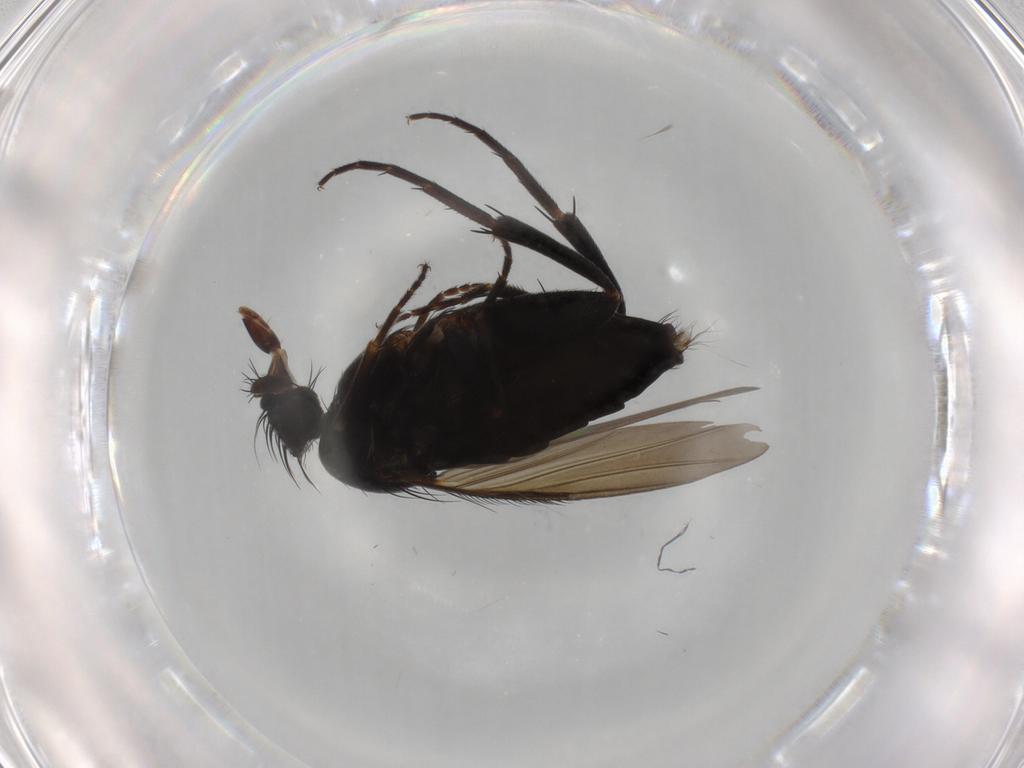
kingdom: Animalia
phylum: Arthropoda
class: Insecta
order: Diptera
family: Phoridae
